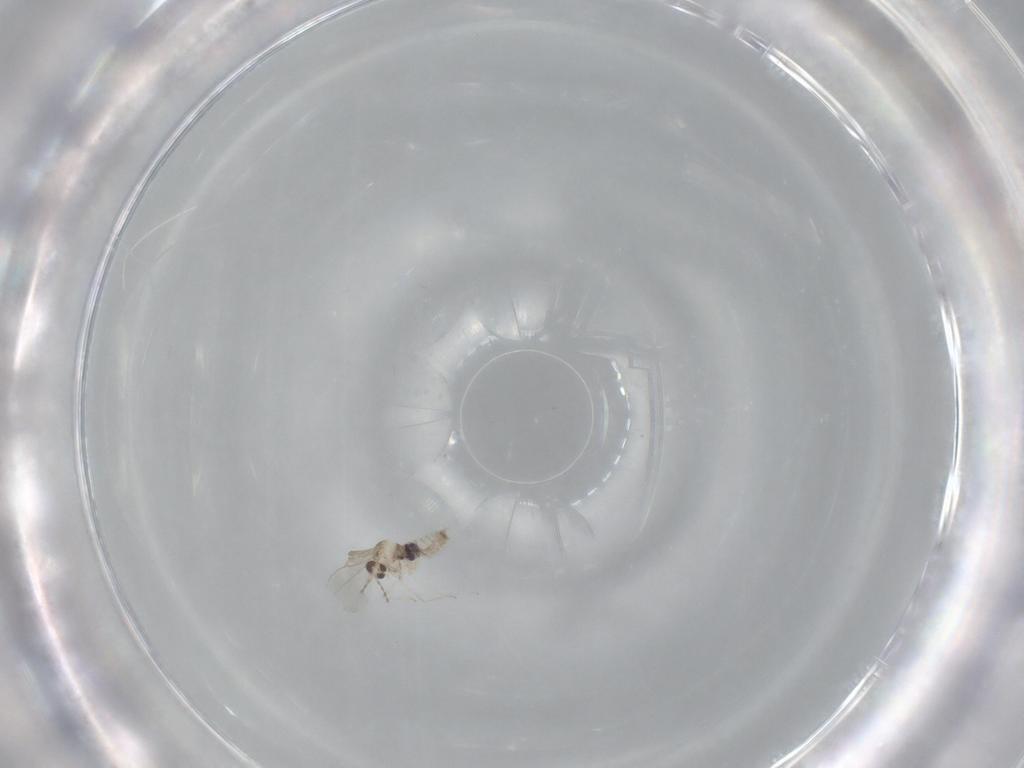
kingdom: Animalia
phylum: Arthropoda
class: Insecta
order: Diptera
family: Cecidomyiidae
